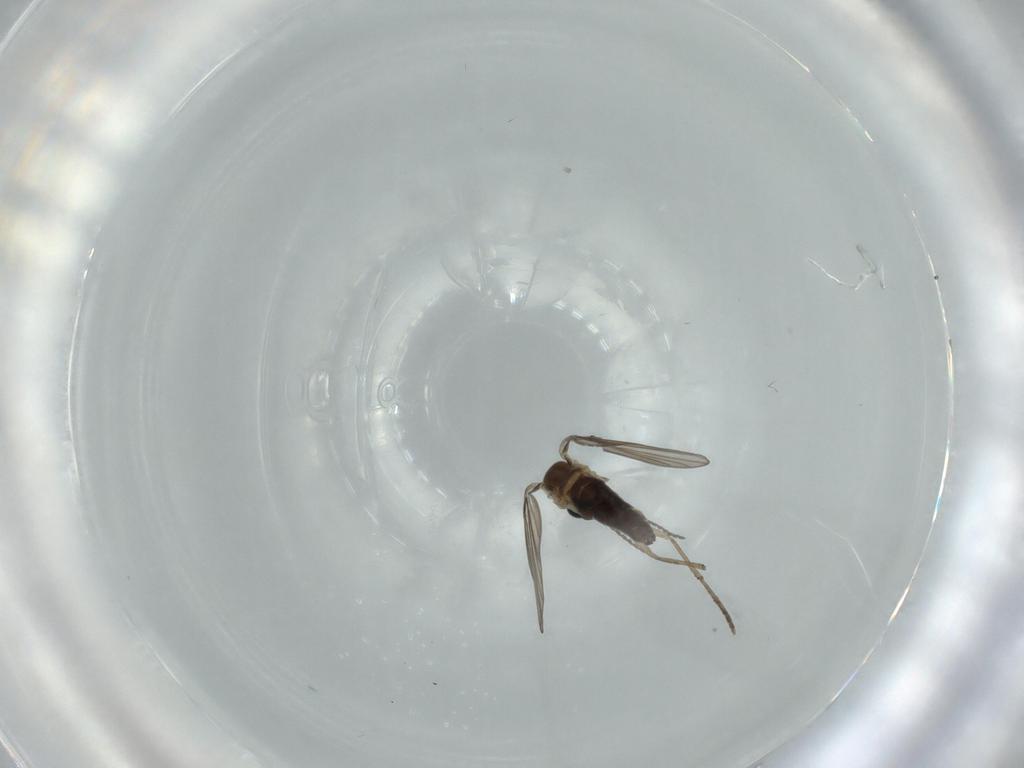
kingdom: Animalia
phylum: Arthropoda
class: Insecta
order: Diptera
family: Psychodidae
